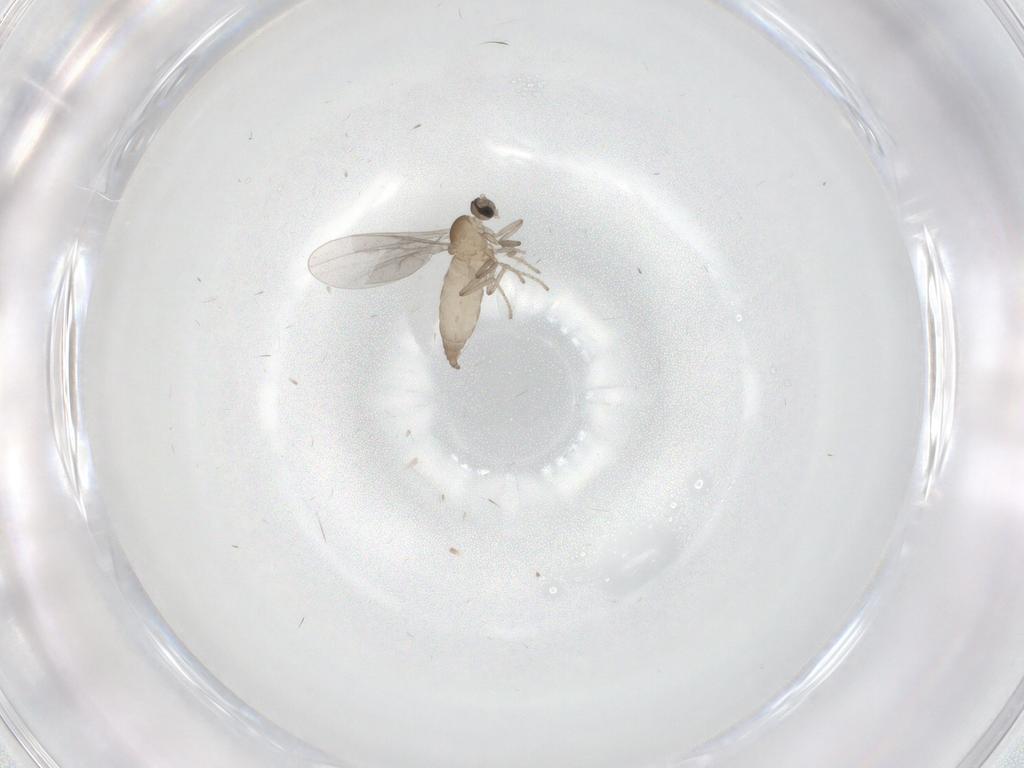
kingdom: Animalia
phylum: Arthropoda
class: Insecta
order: Diptera
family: Cecidomyiidae
